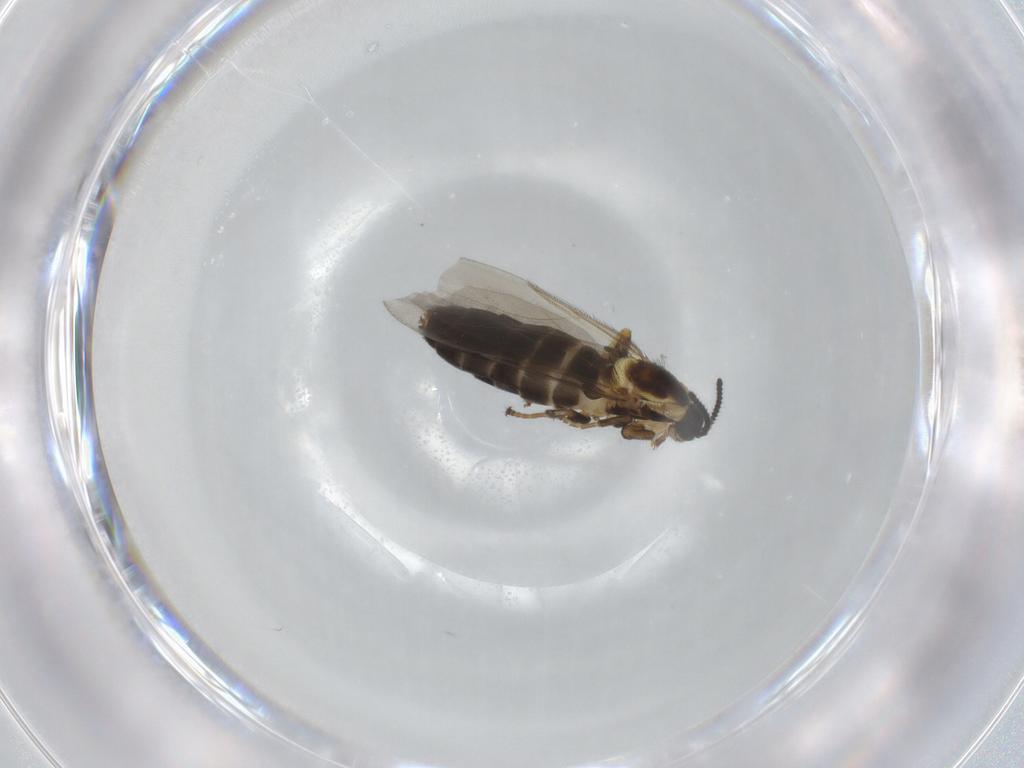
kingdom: Animalia
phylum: Arthropoda
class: Insecta
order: Diptera
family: Scatopsidae
